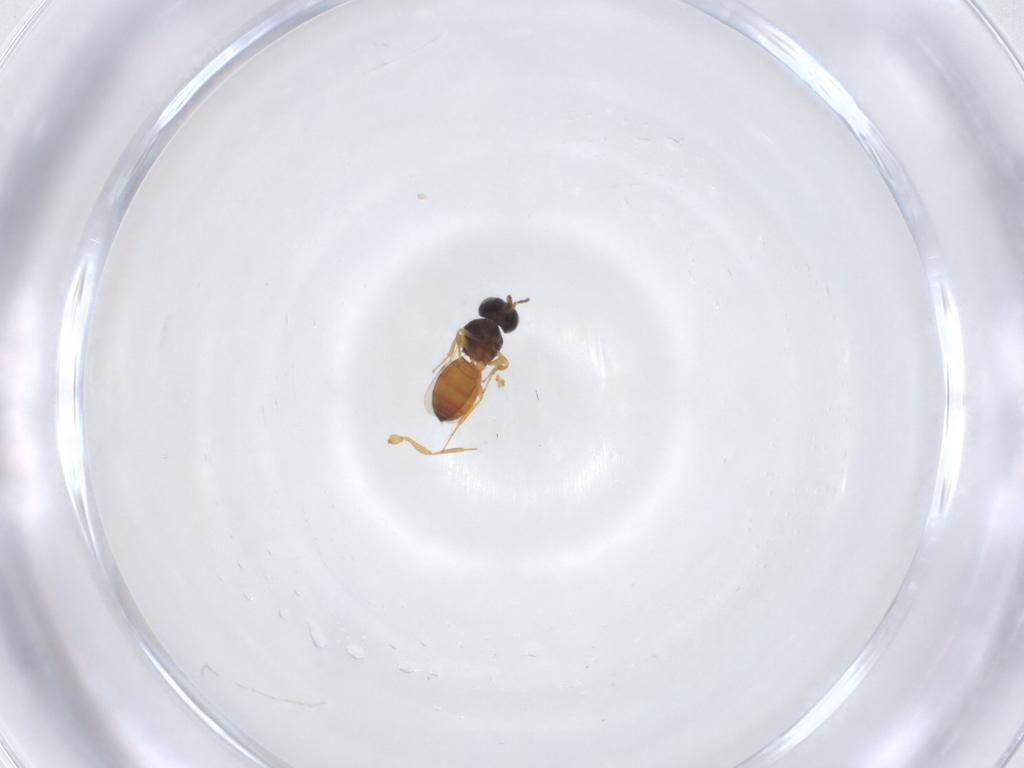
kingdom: Animalia
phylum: Arthropoda
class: Insecta
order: Hymenoptera
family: Scelionidae
